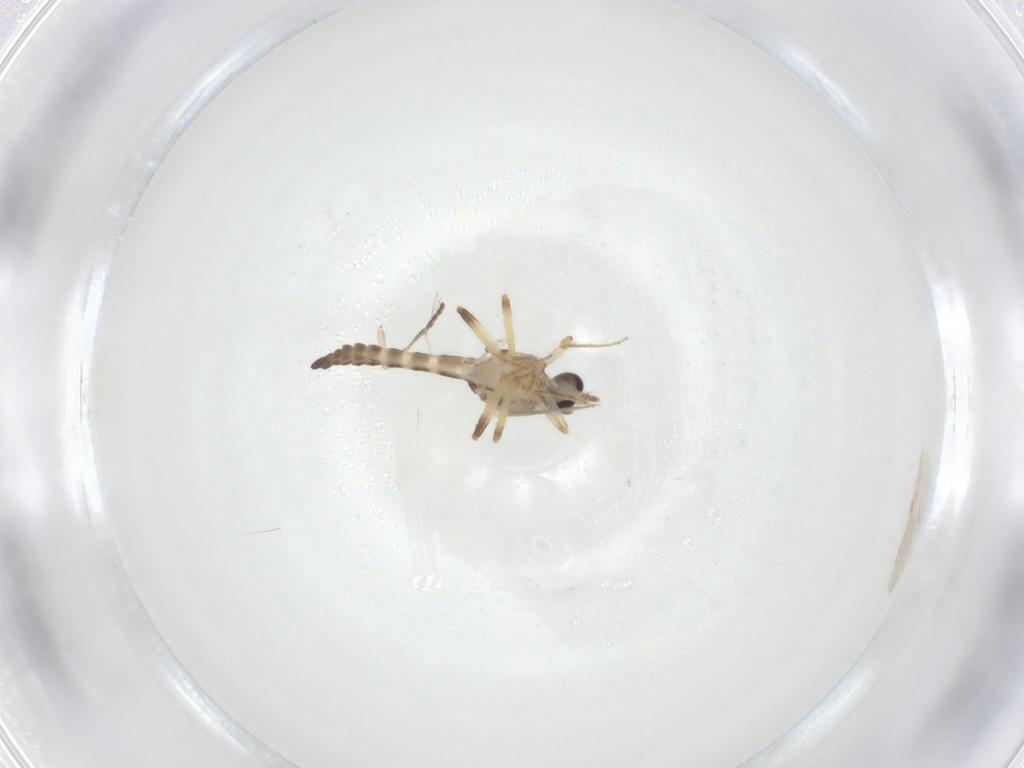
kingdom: Animalia
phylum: Arthropoda
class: Insecta
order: Diptera
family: Ceratopogonidae
